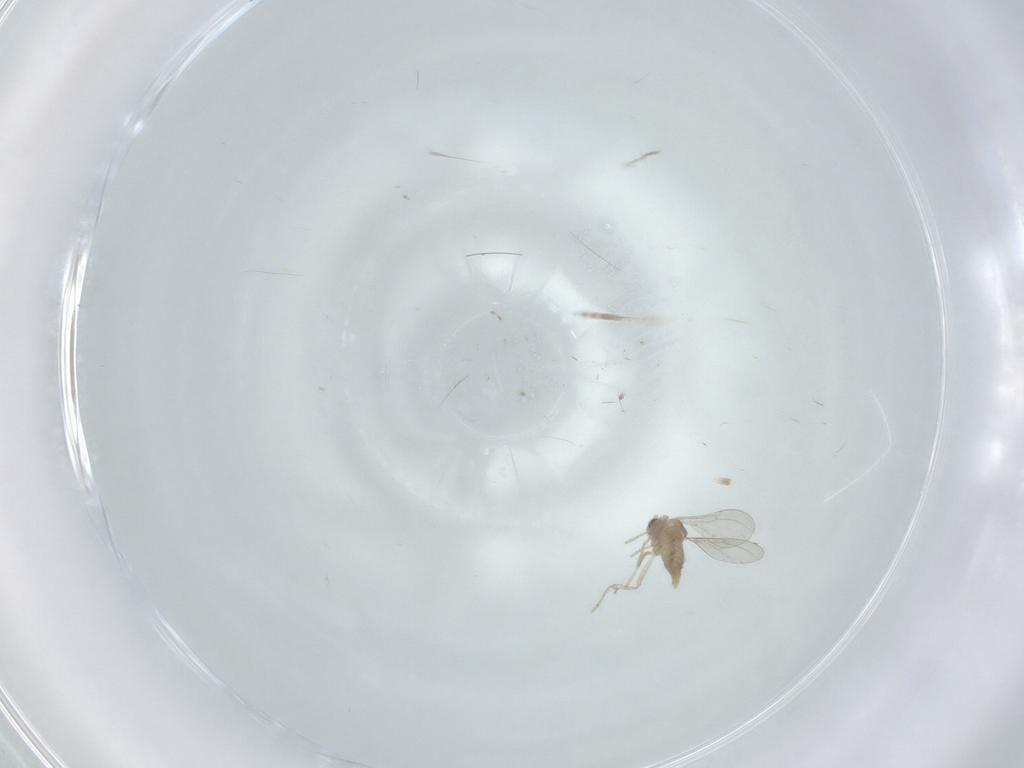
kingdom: Animalia
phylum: Arthropoda
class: Insecta
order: Diptera
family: Cecidomyiidae
